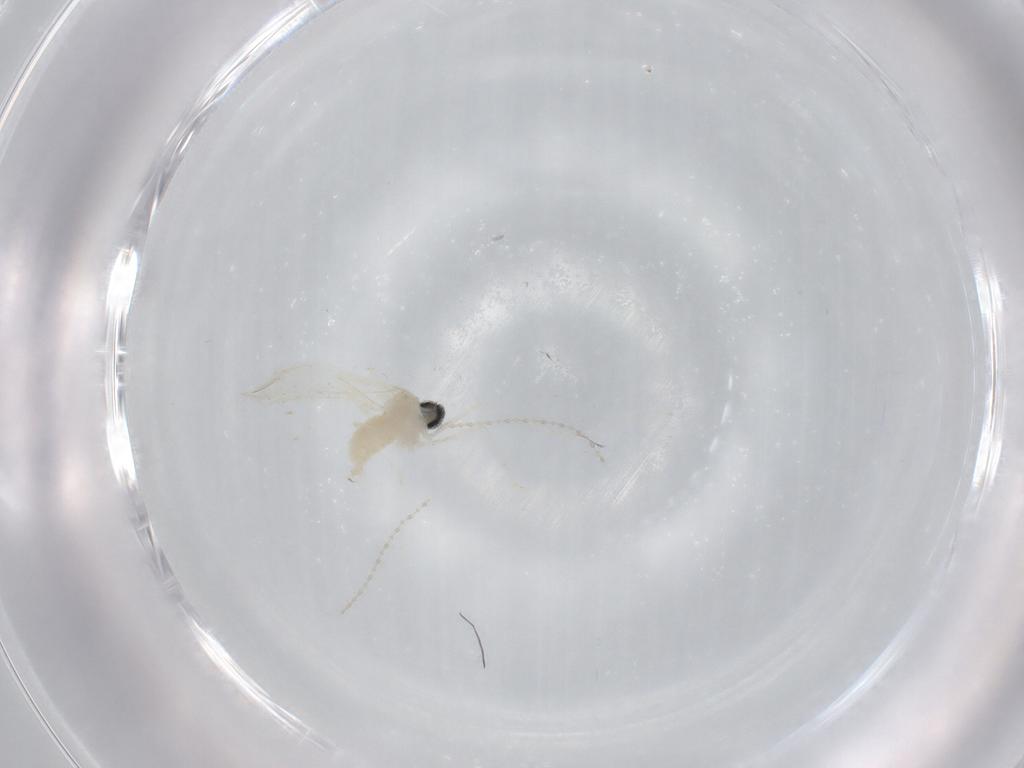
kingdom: Animalia
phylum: Arthropoda
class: Insecta
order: Diptera
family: Cecidomyiidae
